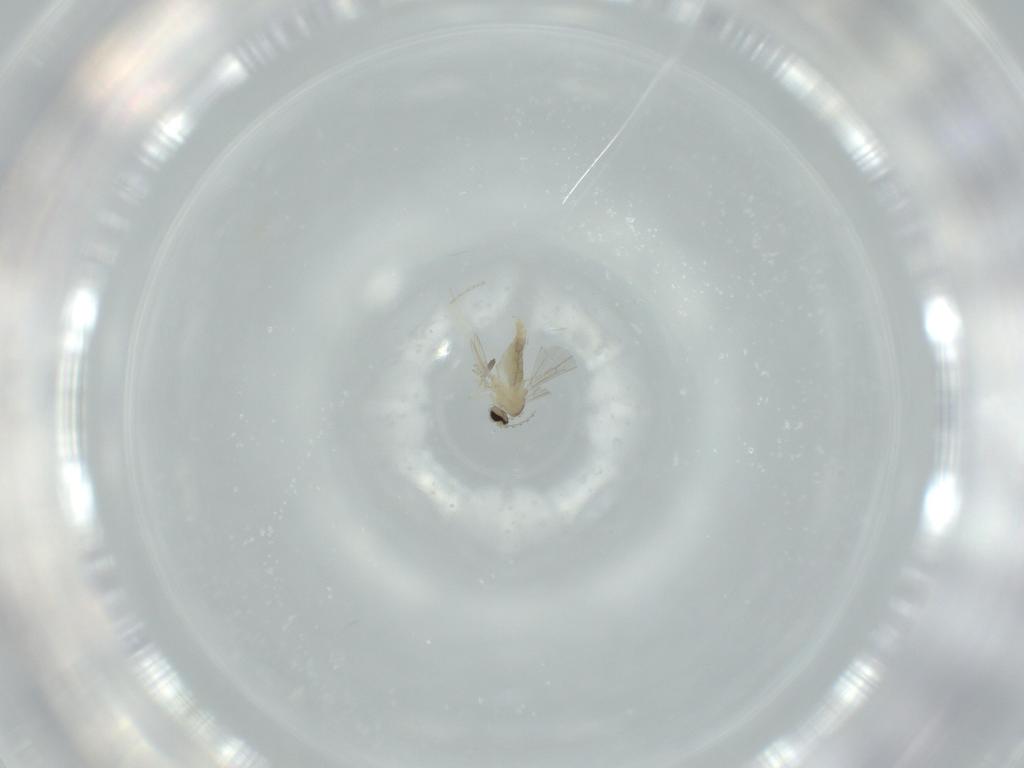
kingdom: Animalia
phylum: Arthropoda
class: Insecta
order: Diptera
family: Cecidomyiidae
